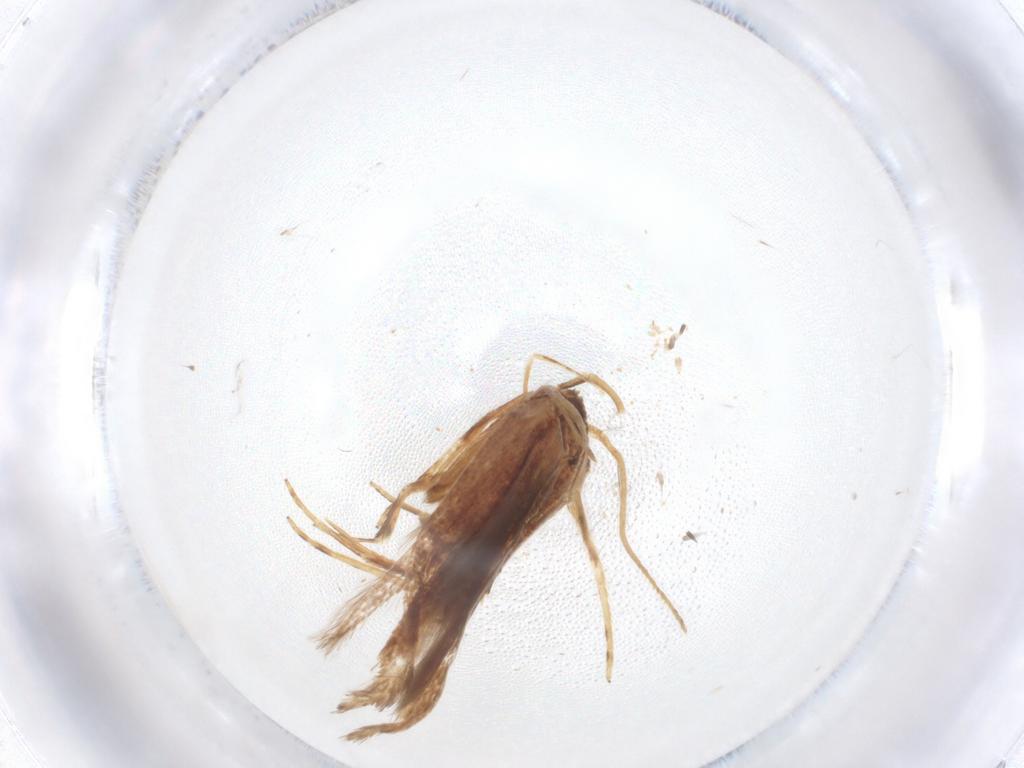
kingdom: Animalia
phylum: Arthropoda
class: Insecta
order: Lepidoptera
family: Cosmopterigidae
